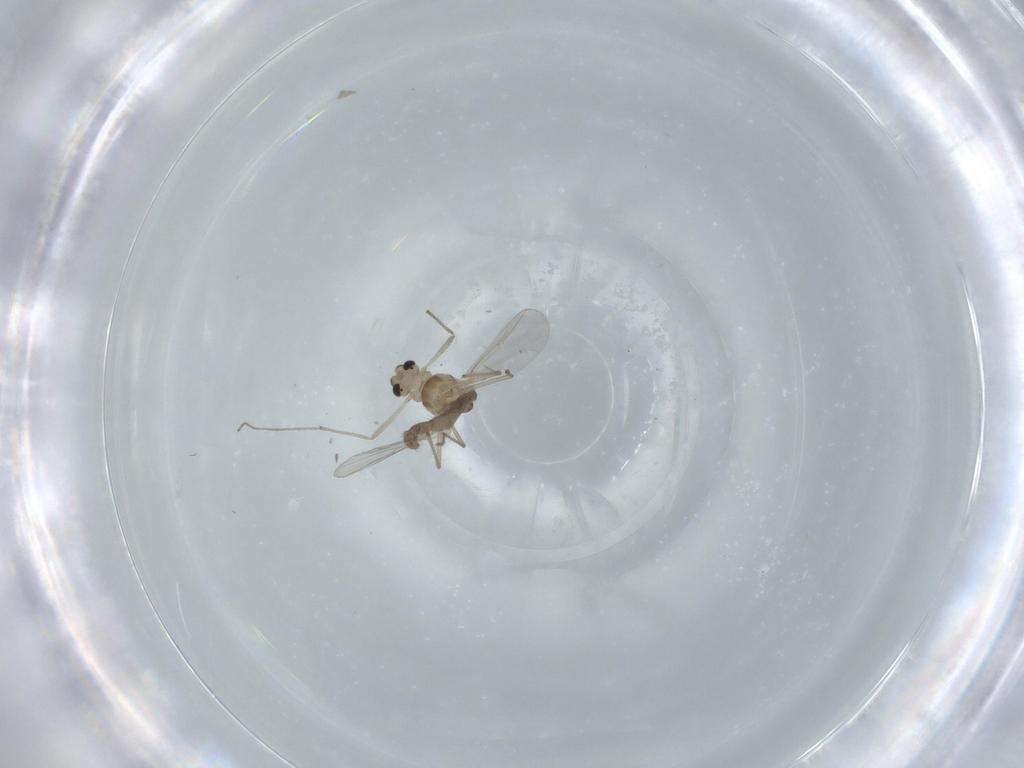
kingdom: Animalia
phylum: Arthropoda
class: Insecta
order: Diptera
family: Chironomidae
